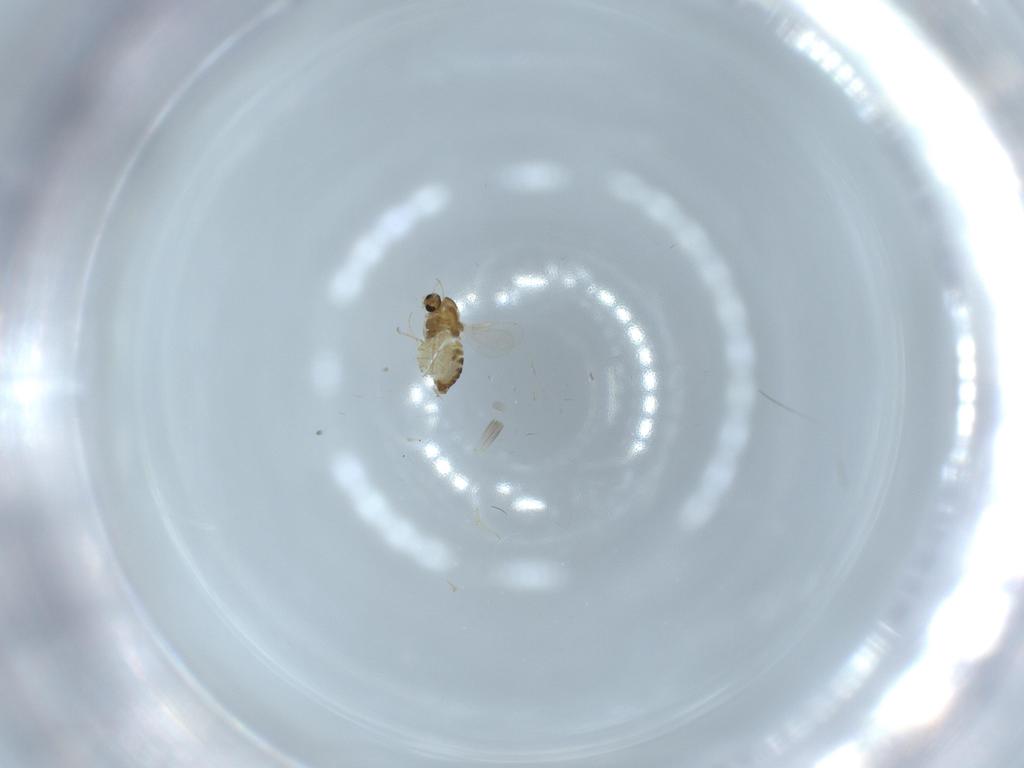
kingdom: Animalia
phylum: Arthropoda
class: Insecta
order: Diptera
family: Chironomidae
